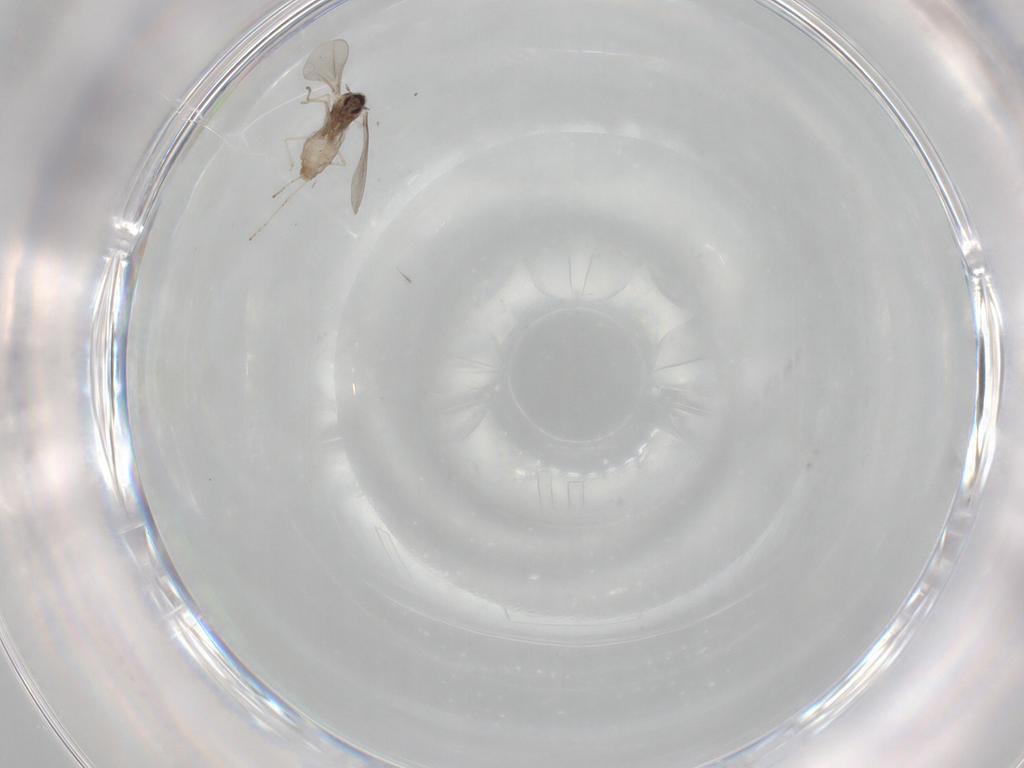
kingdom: Animalia
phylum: Arthropoda
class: Insecta
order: Diptera
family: Cecidomyiidae
